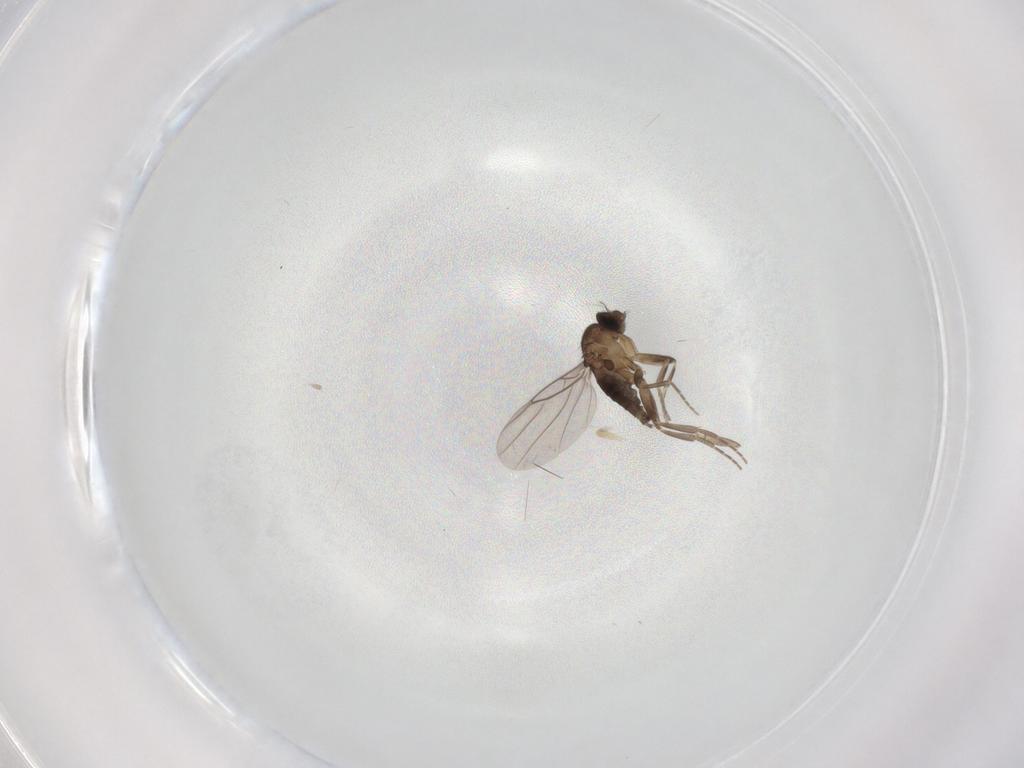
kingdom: Animalia
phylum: Arthropoda
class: Insecta
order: Diptera
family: Phoridae
